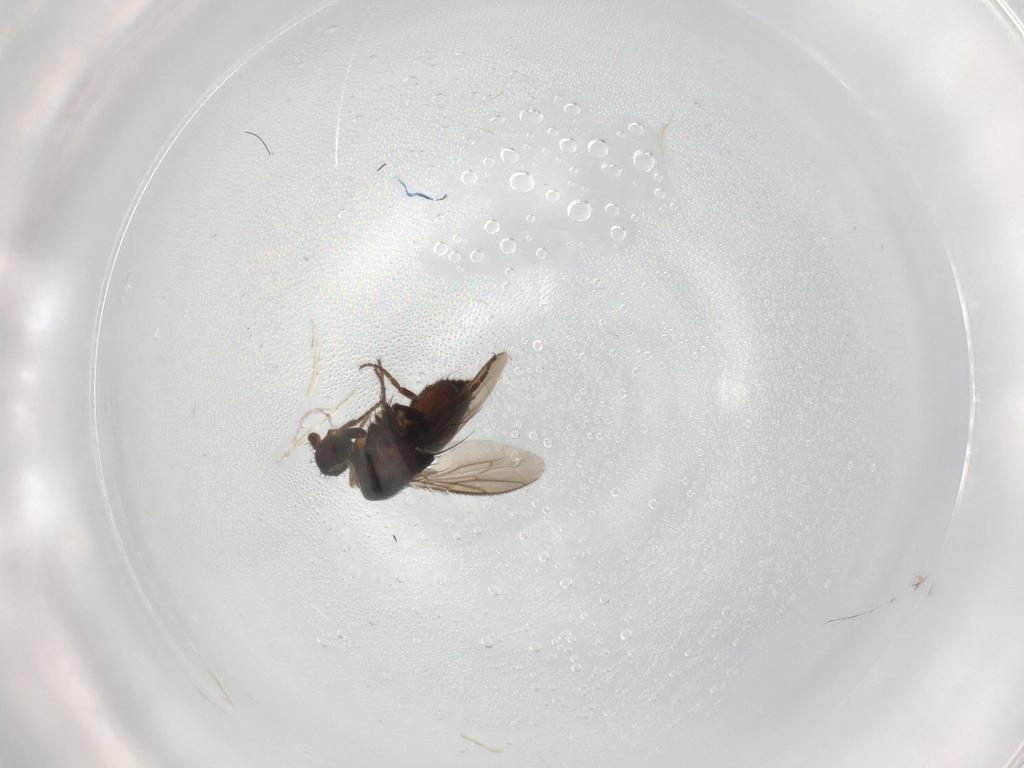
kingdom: Animalia
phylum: Arthropoda
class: Insecta
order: Diptera
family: Sphaeroceridae
